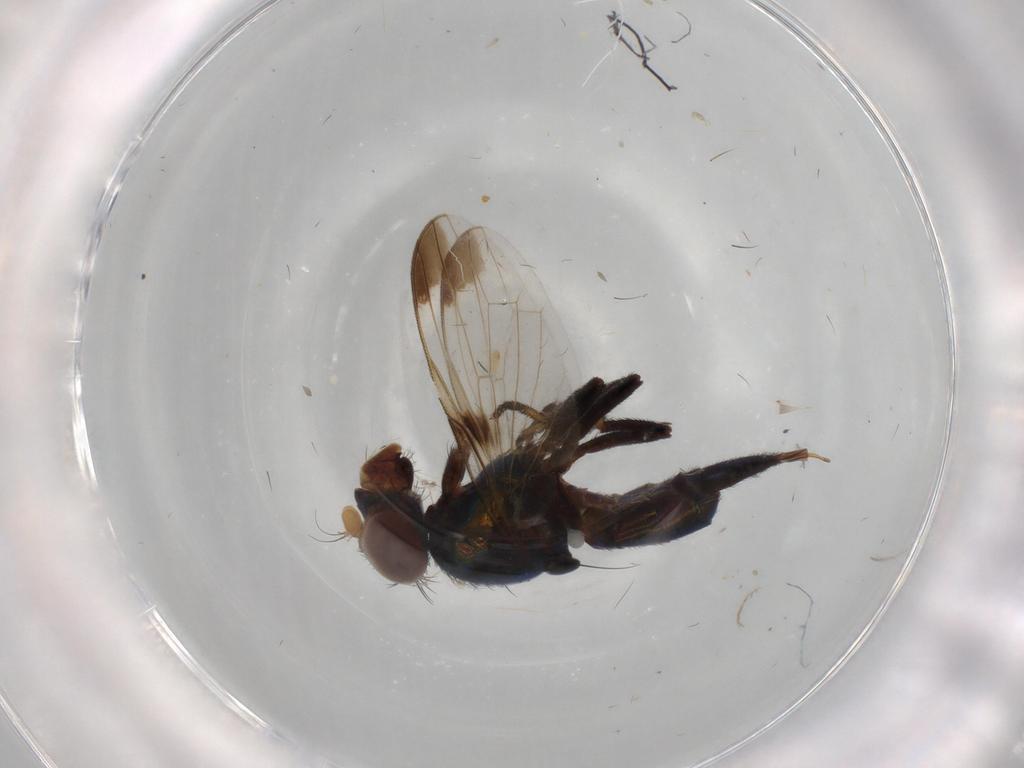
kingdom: Animalia
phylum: Arthropoda
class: Insecta
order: Diptera
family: Ulidiidae
